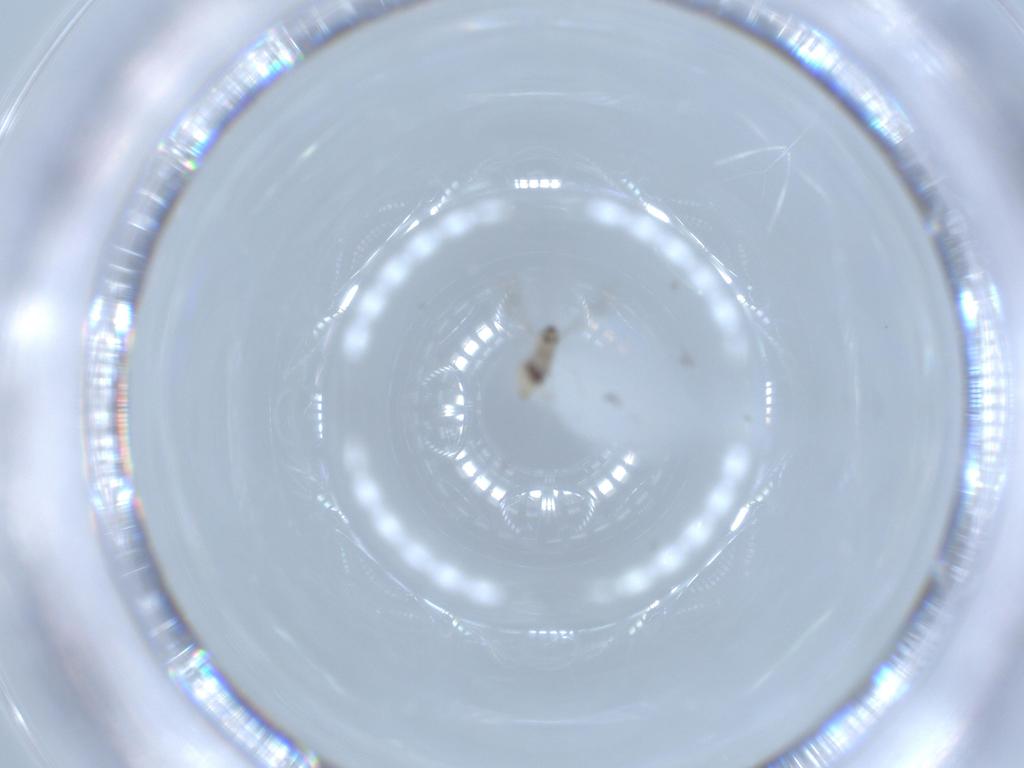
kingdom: Animalia
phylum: Arthropoda
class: Insecta
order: Diptera
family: Cecidomyiidae
